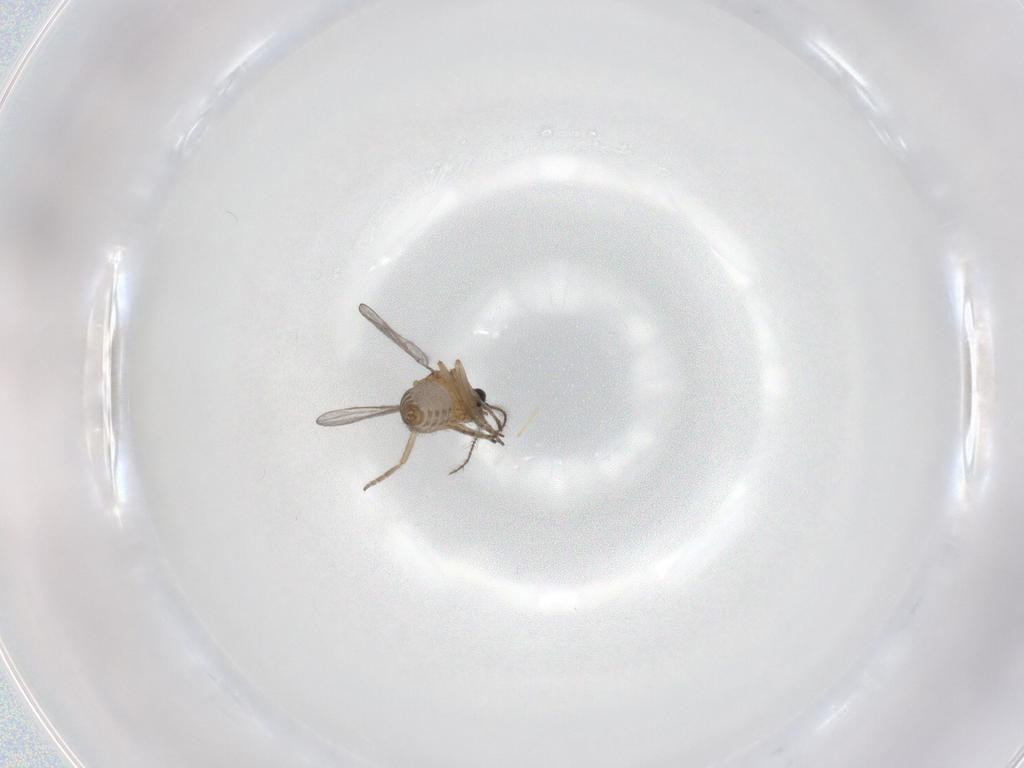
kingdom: Animalia
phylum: Arthropoda
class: Insecta
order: Diptera
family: Ceratopogonidae
